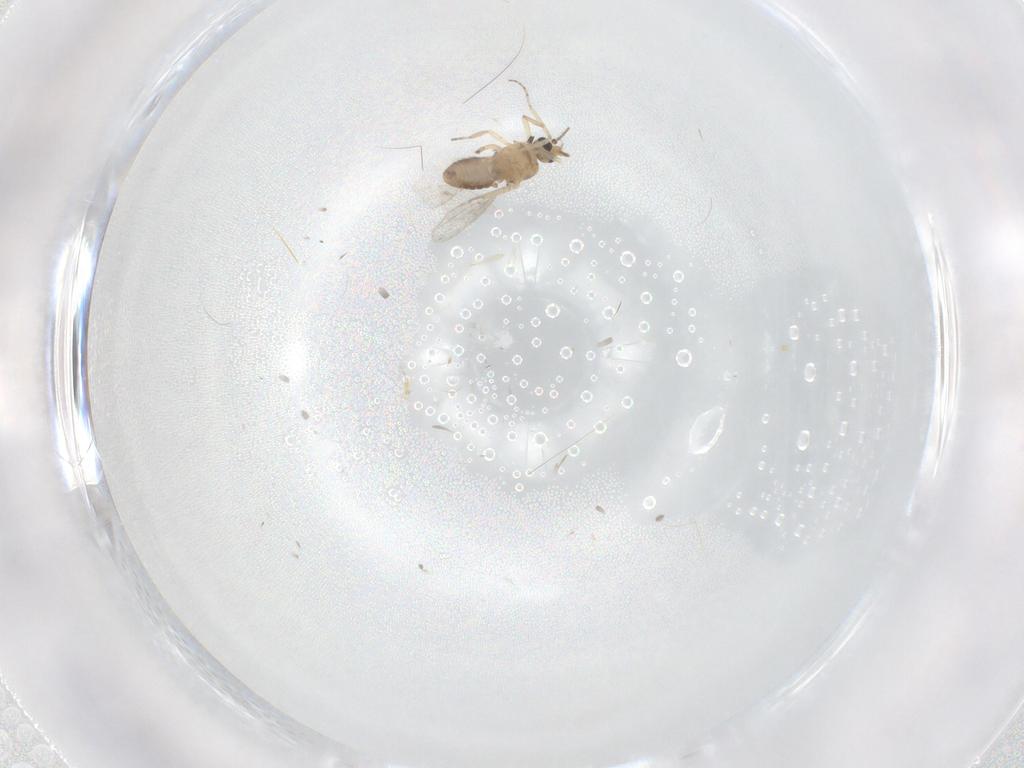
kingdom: Animalia
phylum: Arthropoda
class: Insecta
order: Diptera
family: Ceratopogonidae
